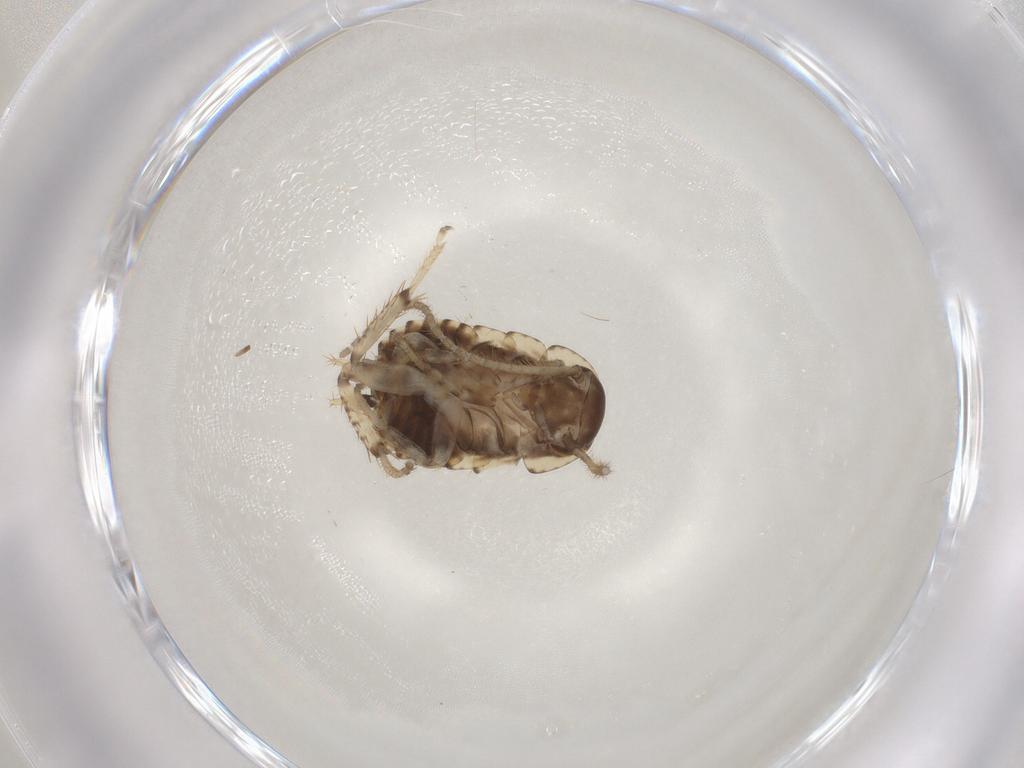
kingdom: Animalia
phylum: Arthropoda
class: Insecta
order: Blattodea
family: Blaberidae
